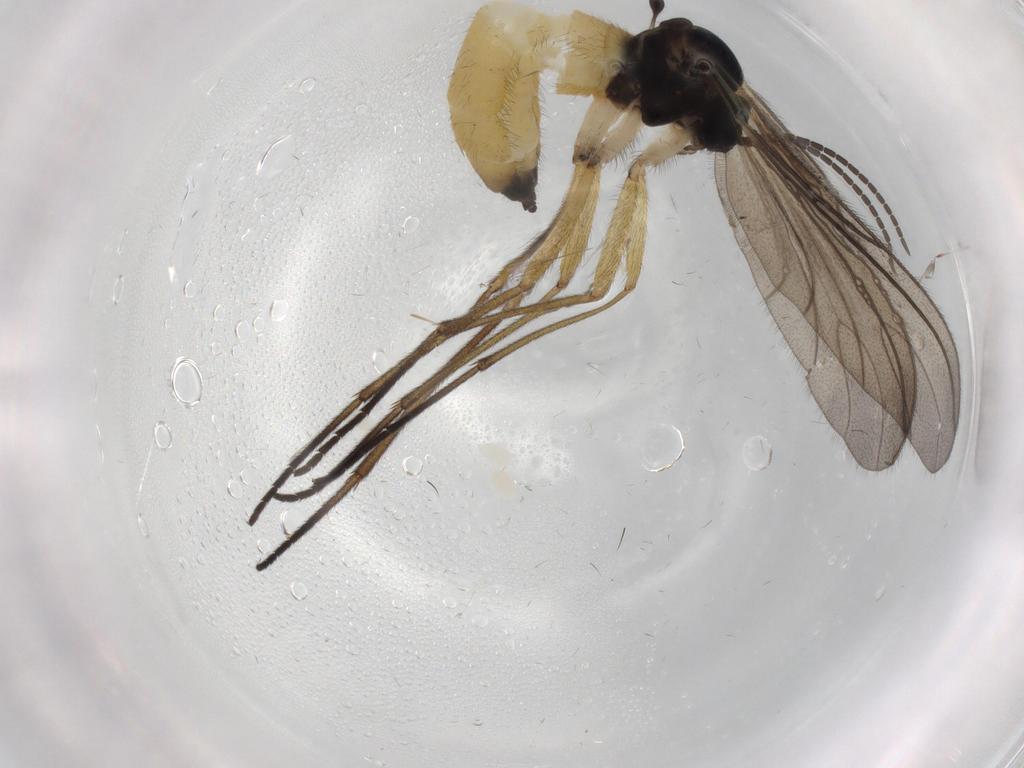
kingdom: Animalia
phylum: Arthropoda
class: Insecta
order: Diptera
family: Sciaridae
